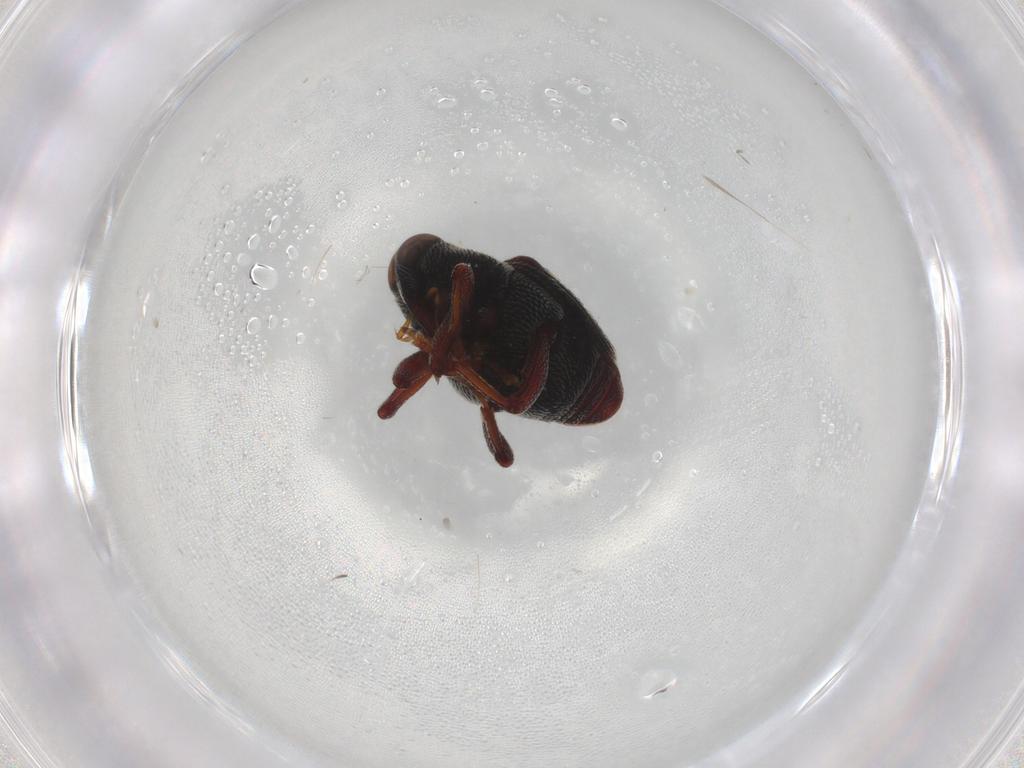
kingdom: Animalia
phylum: Arthropoda
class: Insecta
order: Coleoptera
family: Curculionidae
